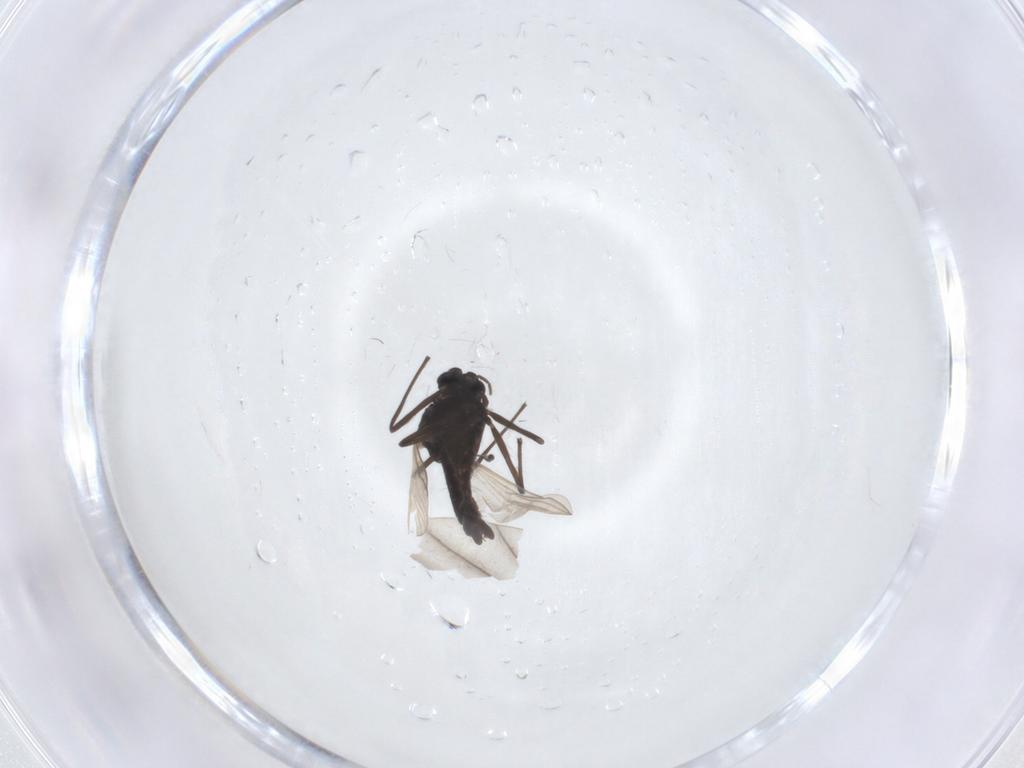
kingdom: Animalia
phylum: Arthropoda
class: Insecta
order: Diptera
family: Chironomidae
